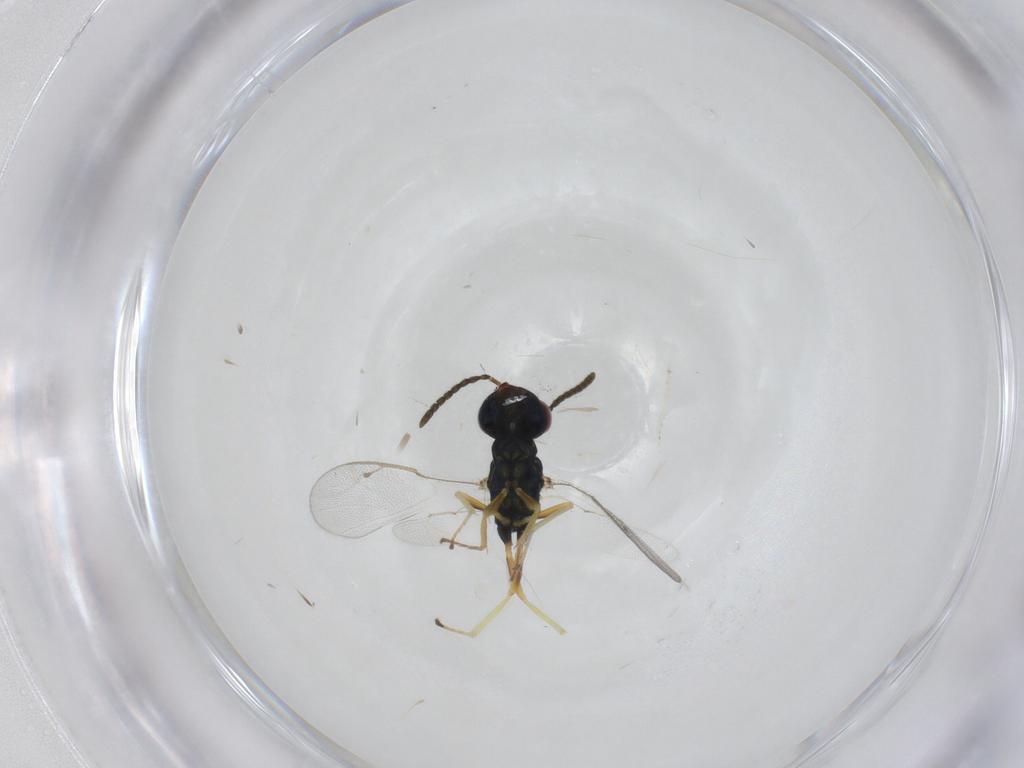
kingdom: Animalia
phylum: Arthropoda
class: Insecta
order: Hymenoptera
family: Pteromalidae
